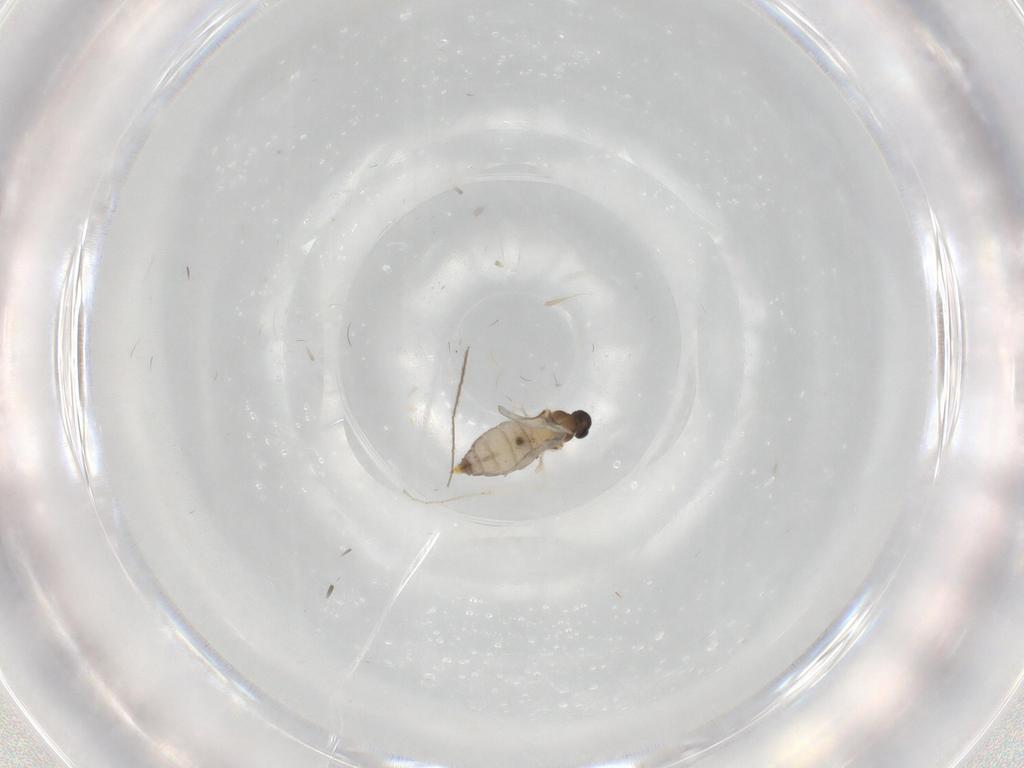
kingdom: Animalia
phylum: Arthropoda
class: Insecta
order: Diptera
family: Cecidomyiidae
